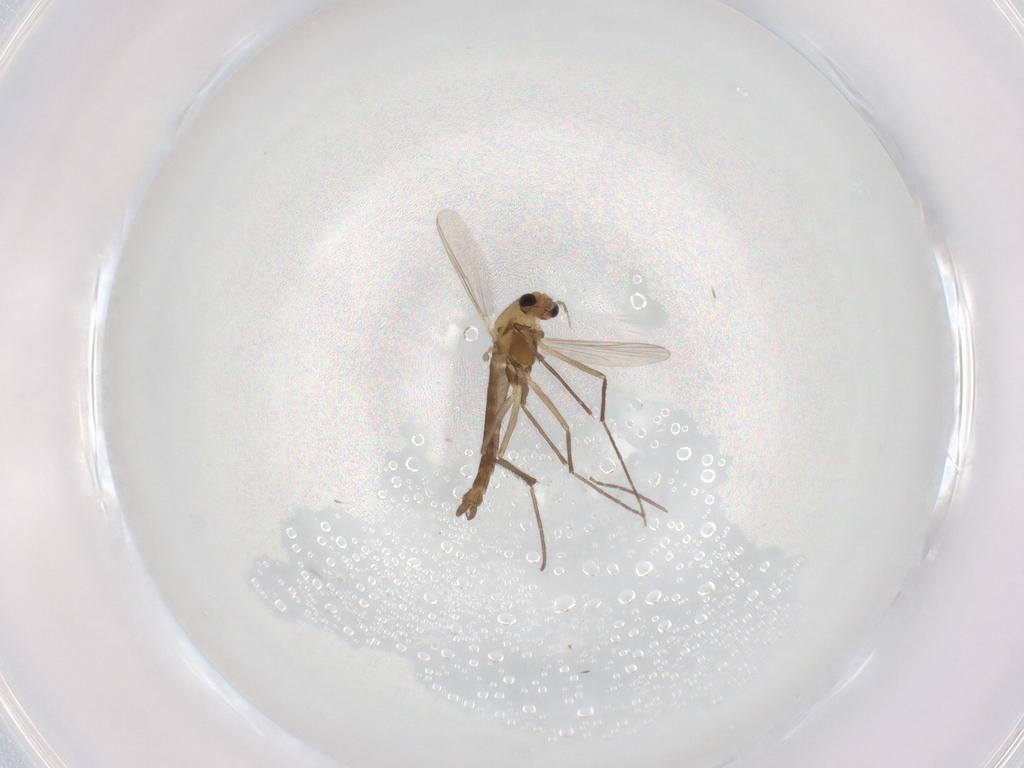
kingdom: Animalia
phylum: Arthropoda
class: Insecta
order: Diptera
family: Chironomidae
